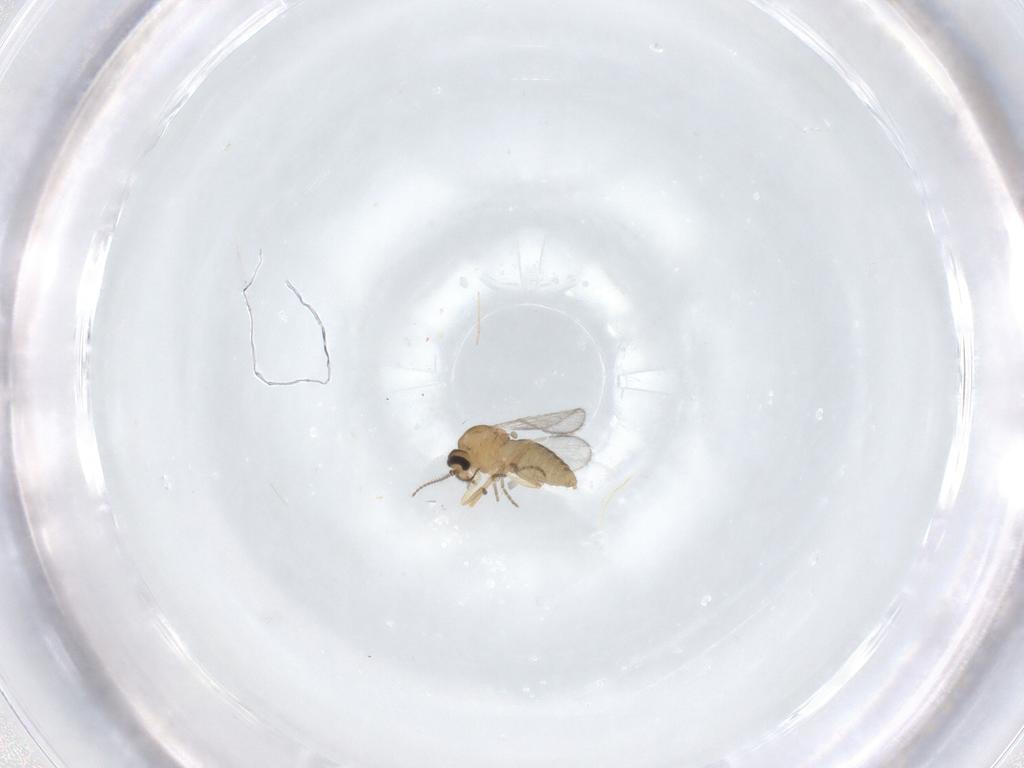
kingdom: Animalia
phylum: Arthropoda
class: Insecta
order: Diptera
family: Ceratopogonidae
